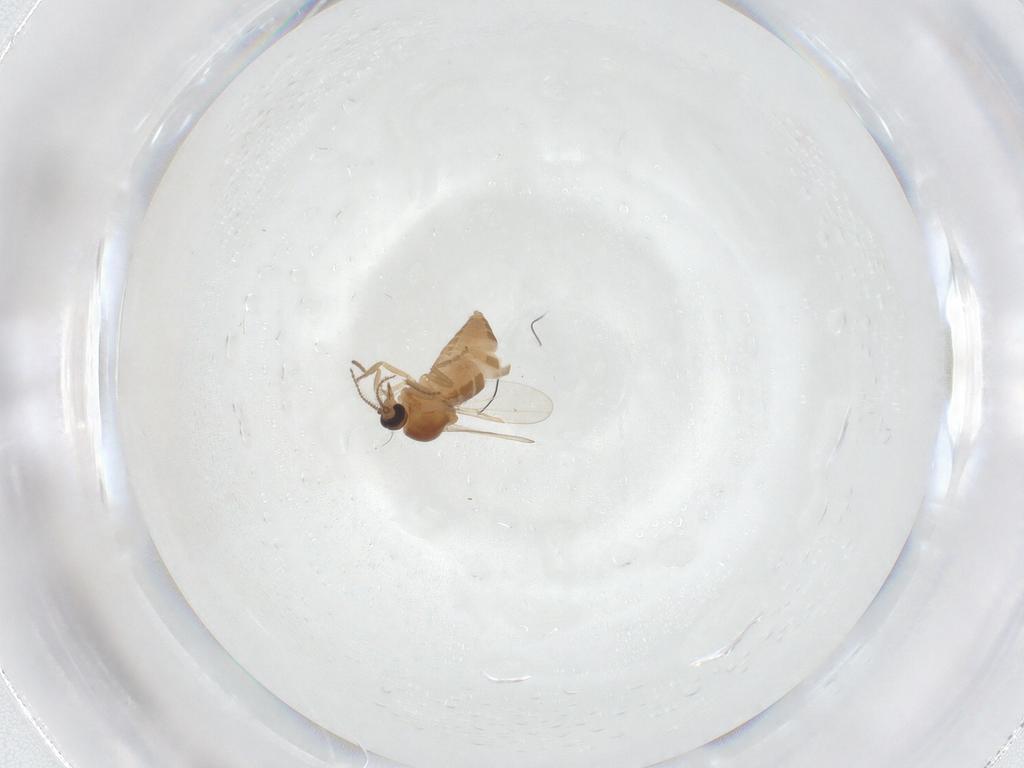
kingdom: Animalia
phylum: Arthropoda
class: Insecta
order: Diptera
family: Ceratopogonidae
